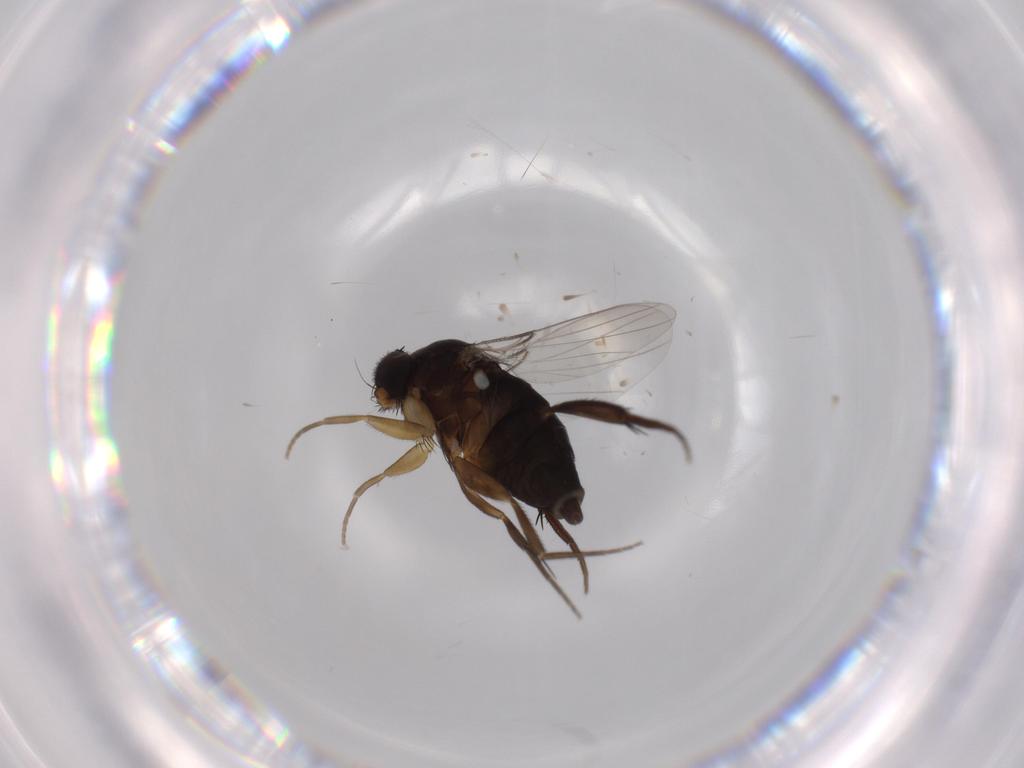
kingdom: Animalia
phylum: Arthropoda
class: Insecta
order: Diptera
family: Phoridae
